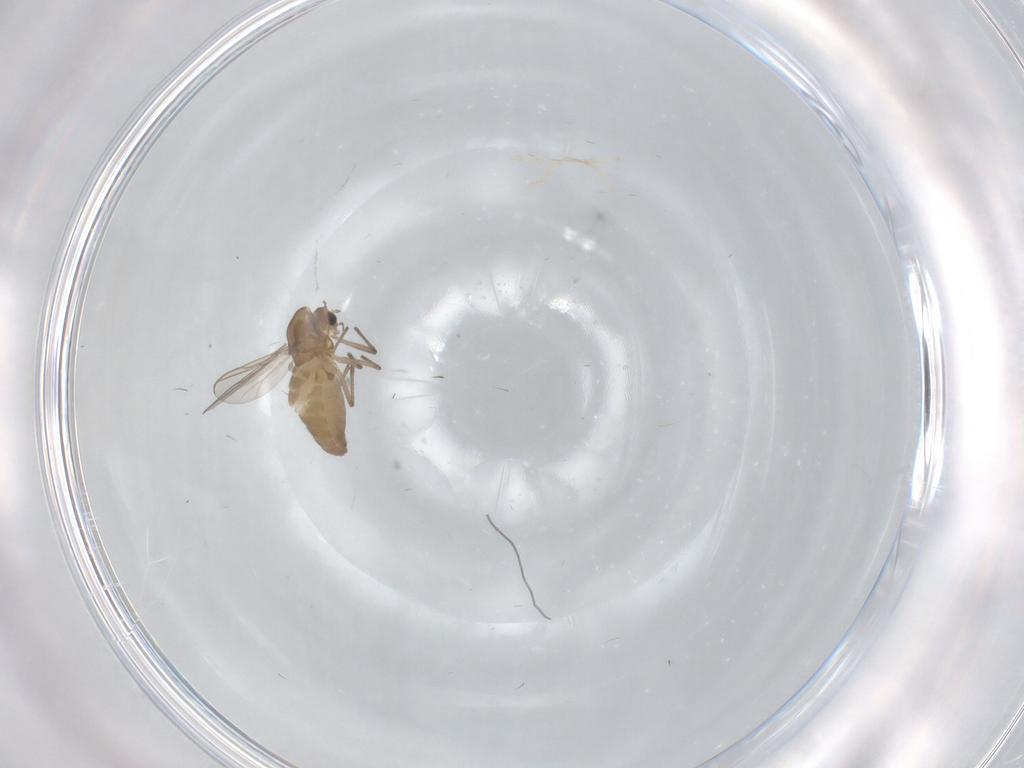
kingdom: Animalia
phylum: Arthropoda
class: Insecta
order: Diptera
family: Chironomidae
